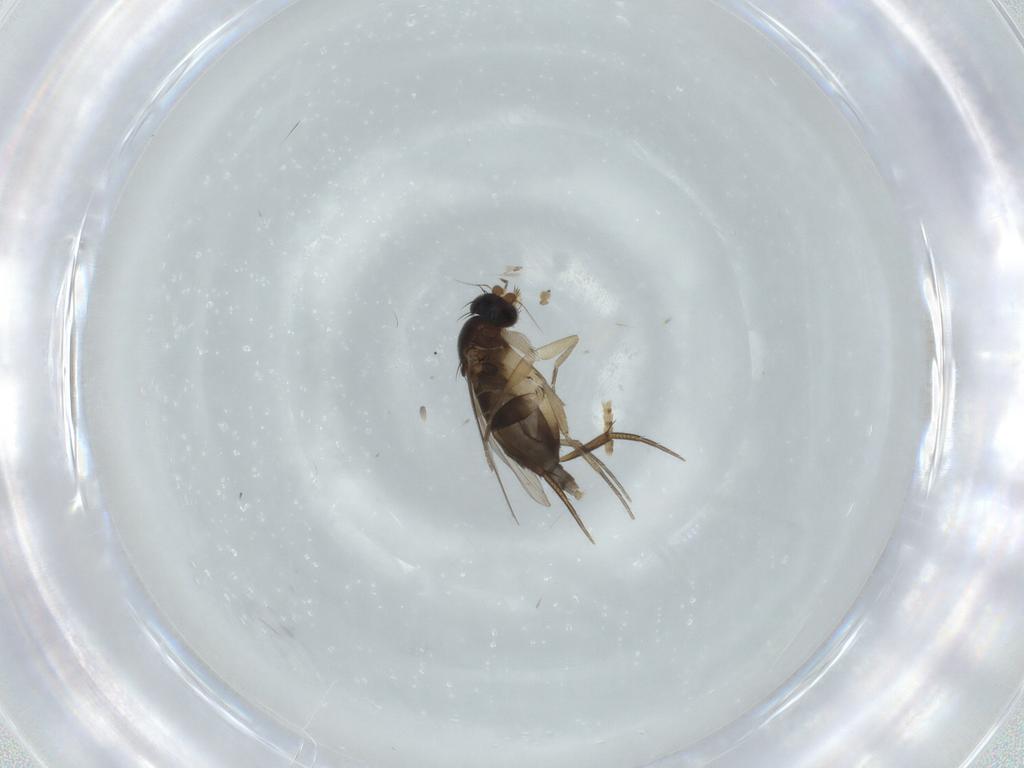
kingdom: Animalia
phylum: Arthropoda
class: Insecta
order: Diptera
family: Phoridae
